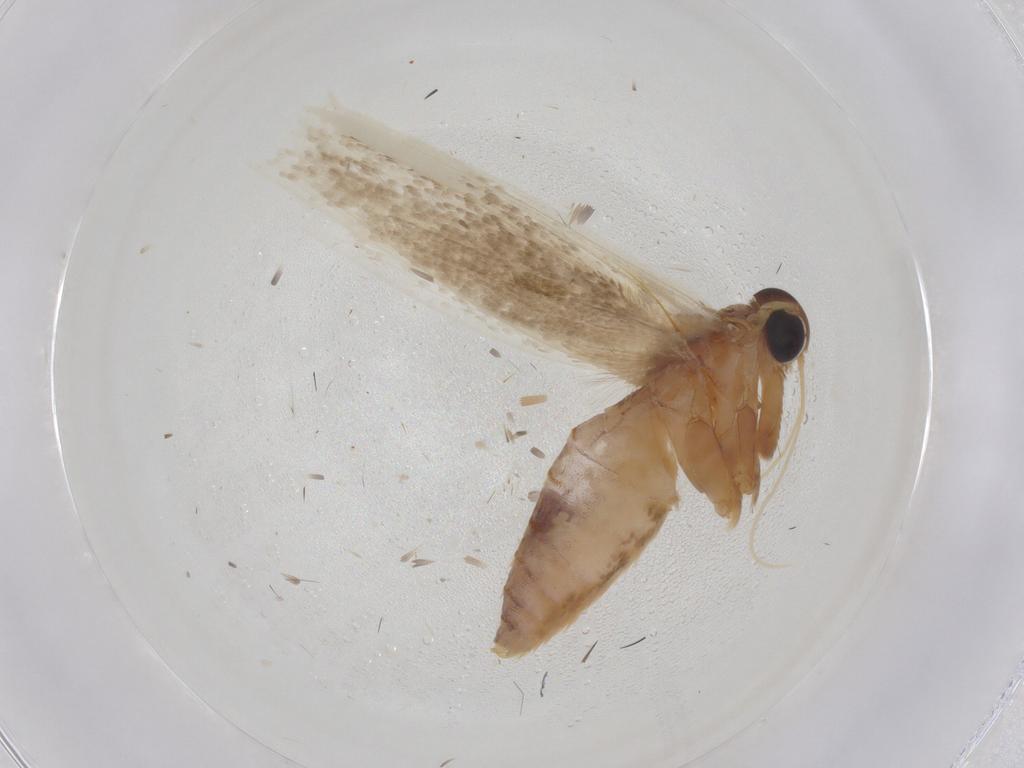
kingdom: Animalia
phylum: Arthropoda
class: Insecta
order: Lepidoptera
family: Blastobasidae
